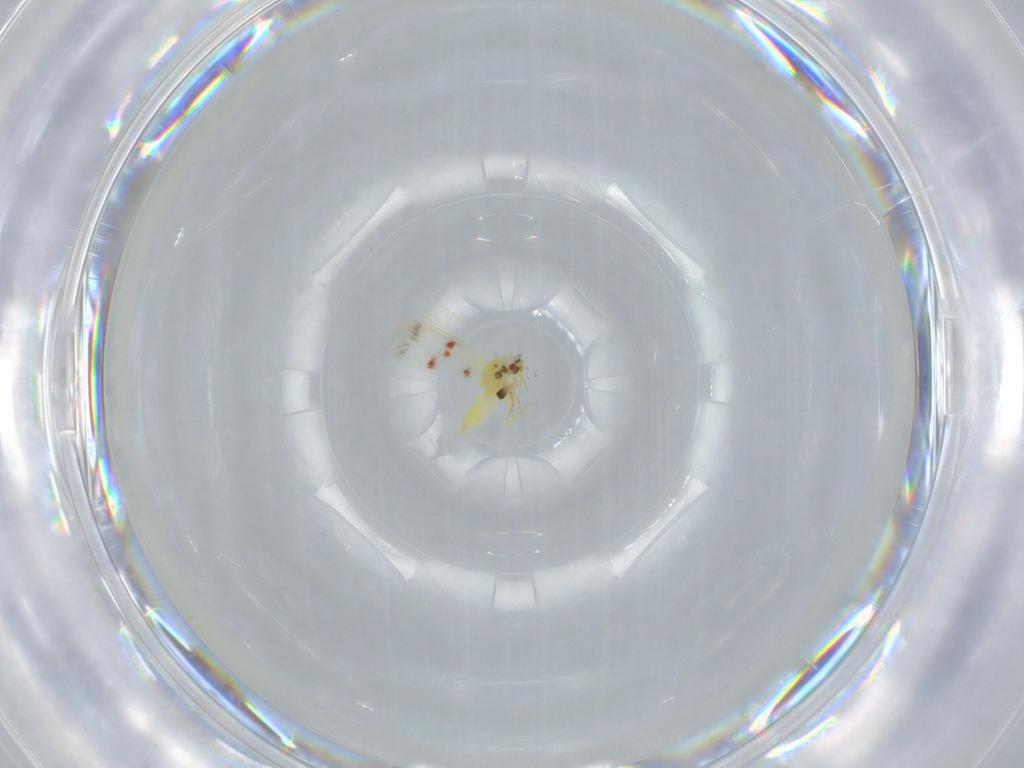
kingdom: Animalia
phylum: Arthropoda
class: Insecta
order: Hemiptera
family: Aleyrodidae
